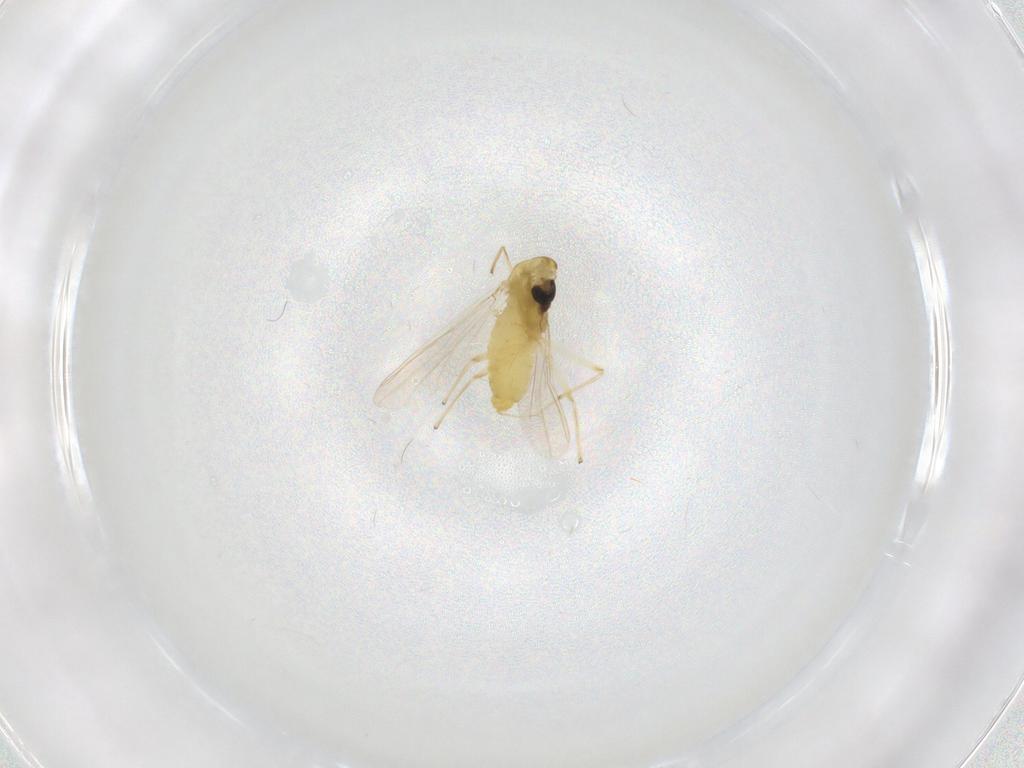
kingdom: Animalia
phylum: Arthropoda
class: Insecta
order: Diptera
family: Chironomidae
